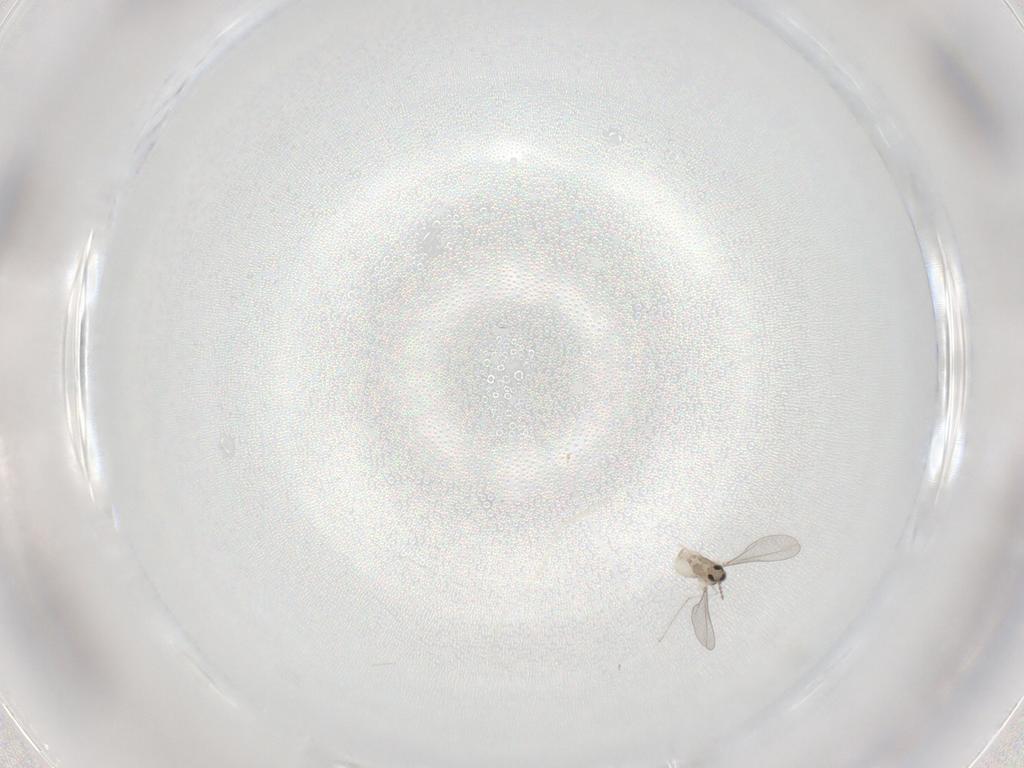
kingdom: Animalia
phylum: Arthropoda
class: Insecta
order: Diptera
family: Cecidomyiidae
